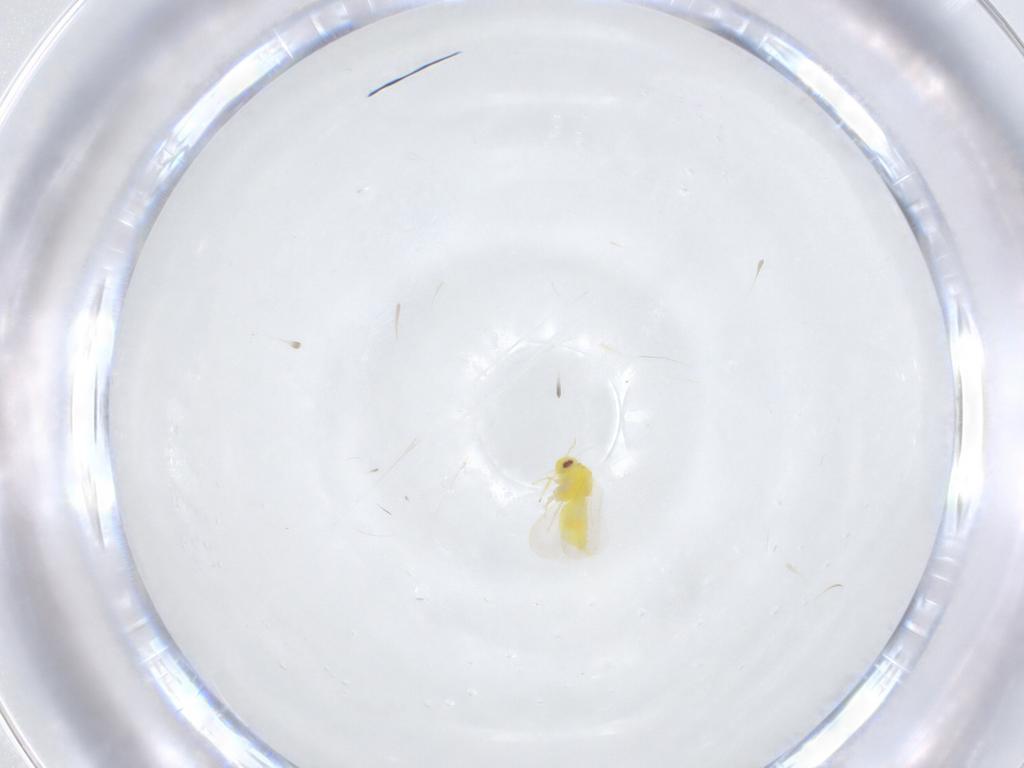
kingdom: Animalia
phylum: Arthropoda
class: Insecta
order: Hemiptera
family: Aleyrodidae
